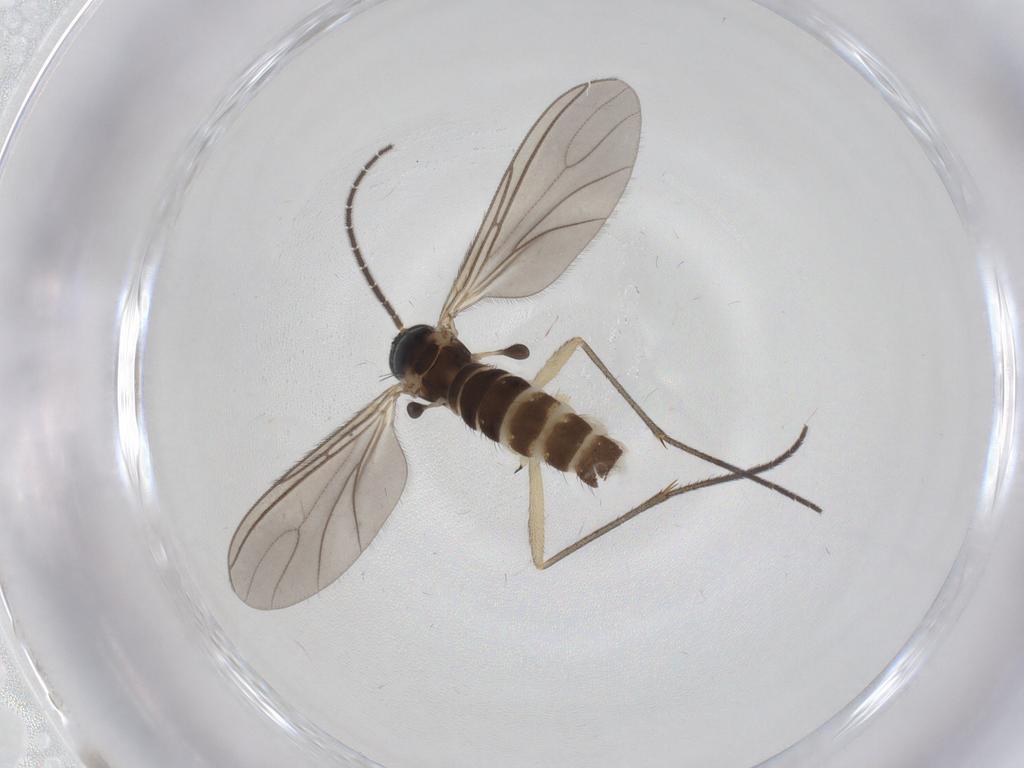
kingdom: Animalia
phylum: Arthropoda
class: Insecta
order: Diptera
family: Sciaridae
